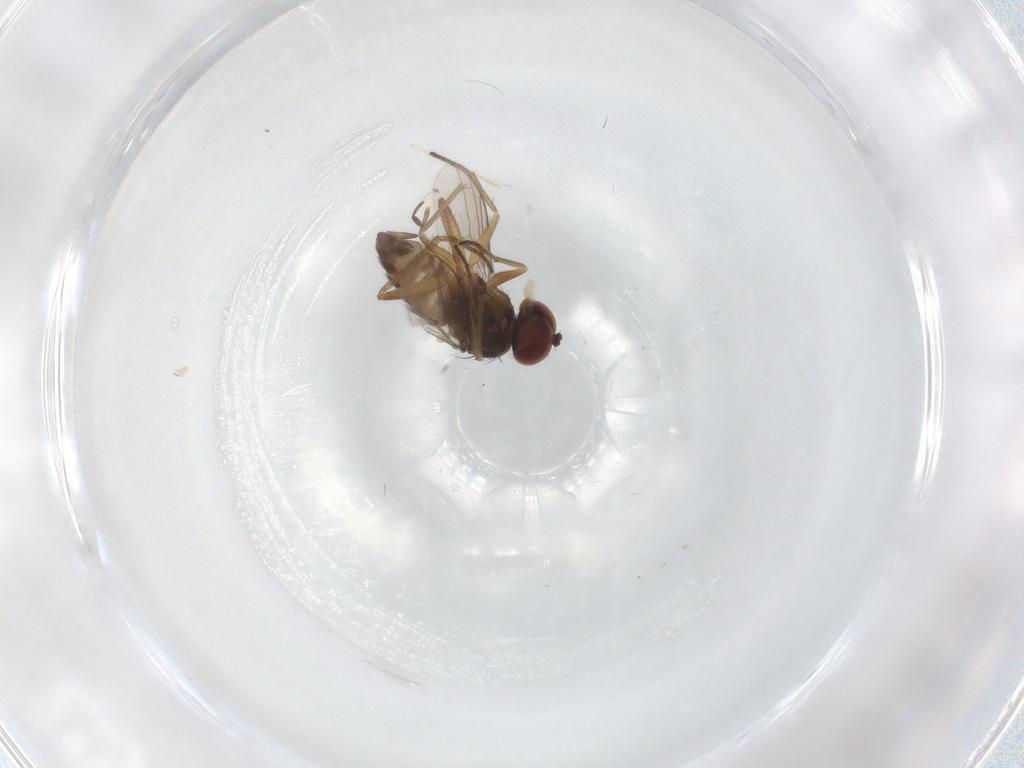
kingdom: Animalia
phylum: Arthropoda
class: Insecta
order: Diptera
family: Dolichopodidae
